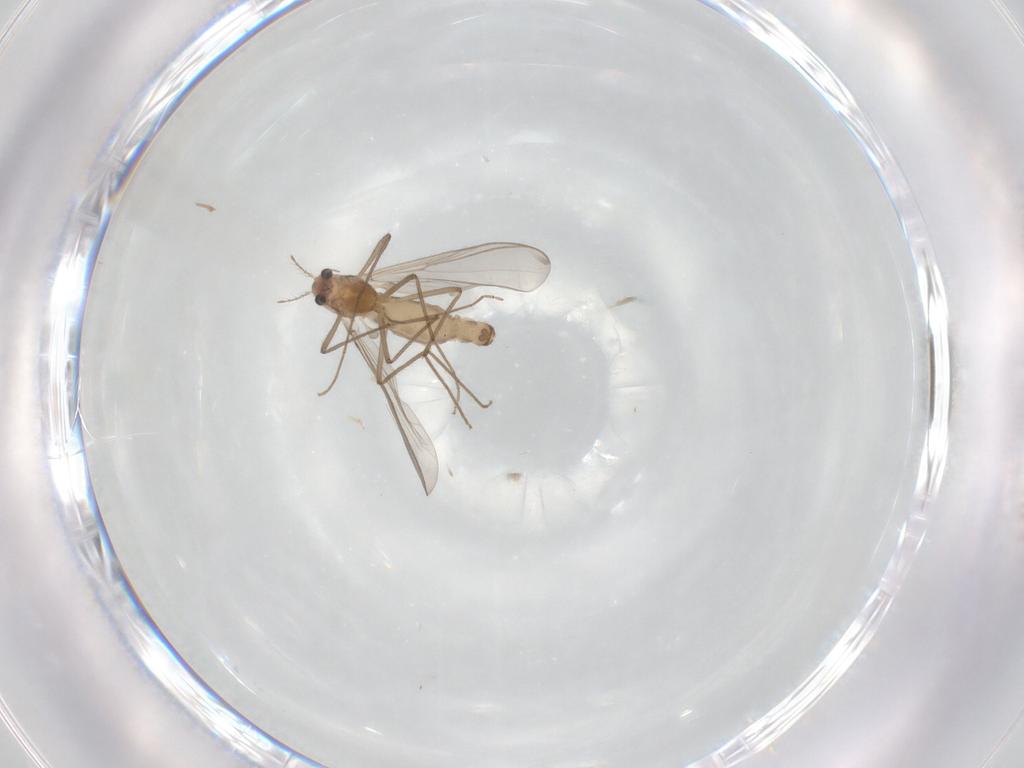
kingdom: Animalia
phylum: Arthropoda
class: Insecta
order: Diptera
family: Chironomidae
